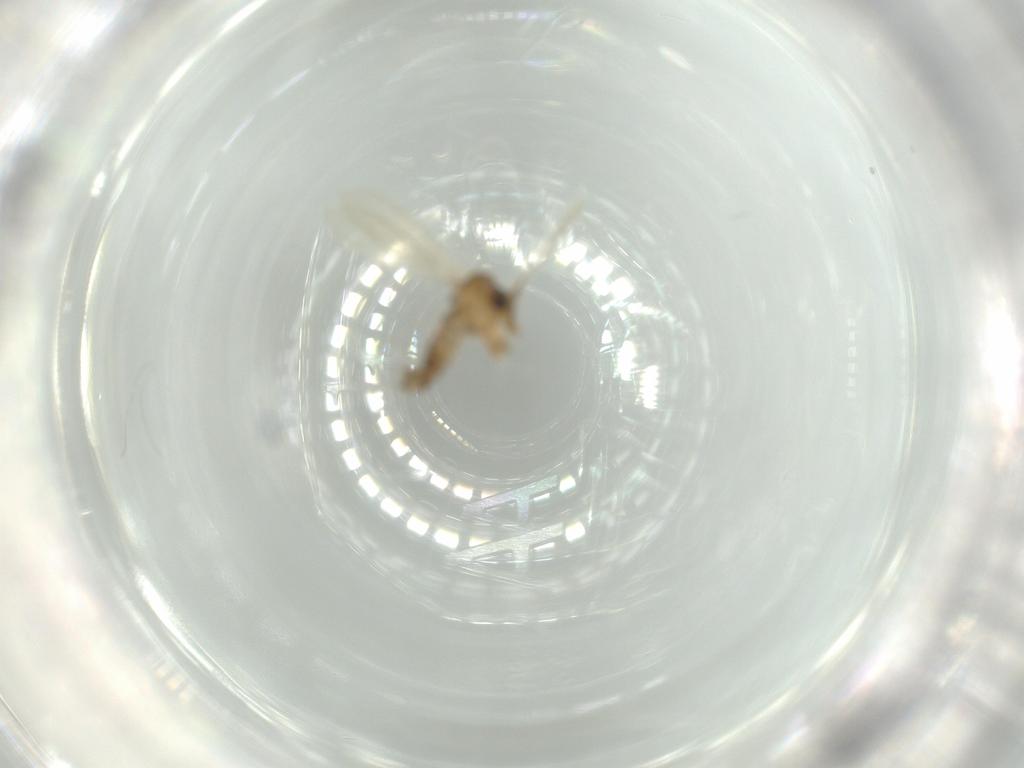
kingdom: Animalia
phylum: Arthropoda
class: Insecta
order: Diptera
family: Psychodidae
